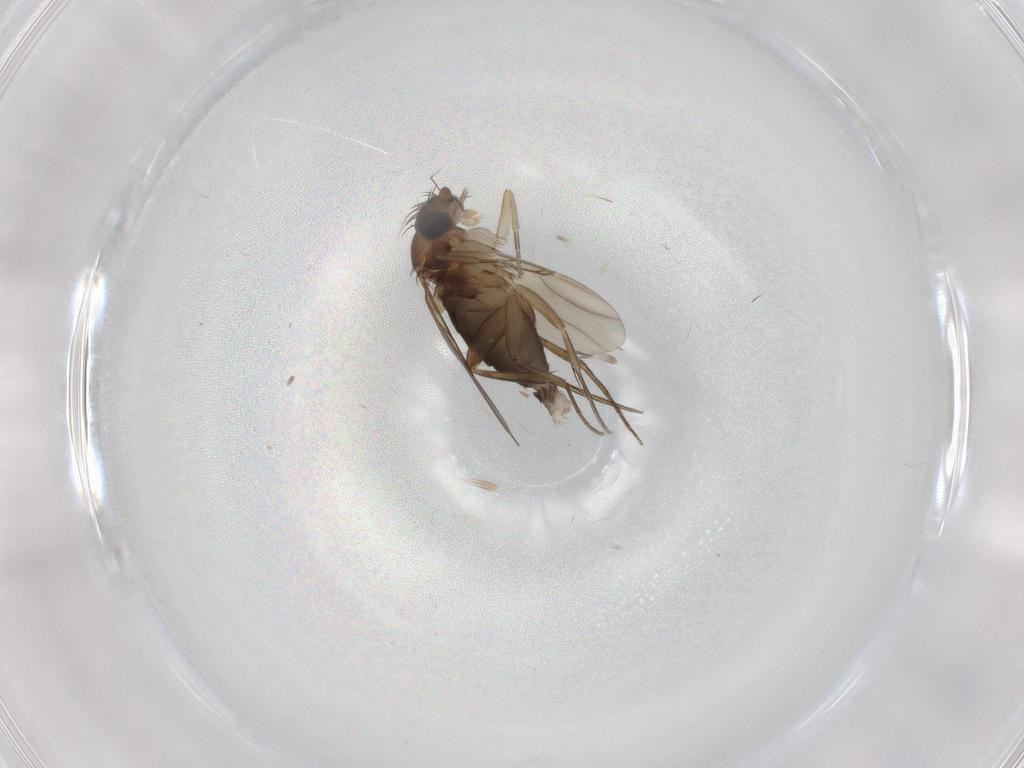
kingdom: Animalia
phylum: Arthropoda
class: Insecta
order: Diptera
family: Phoridae
